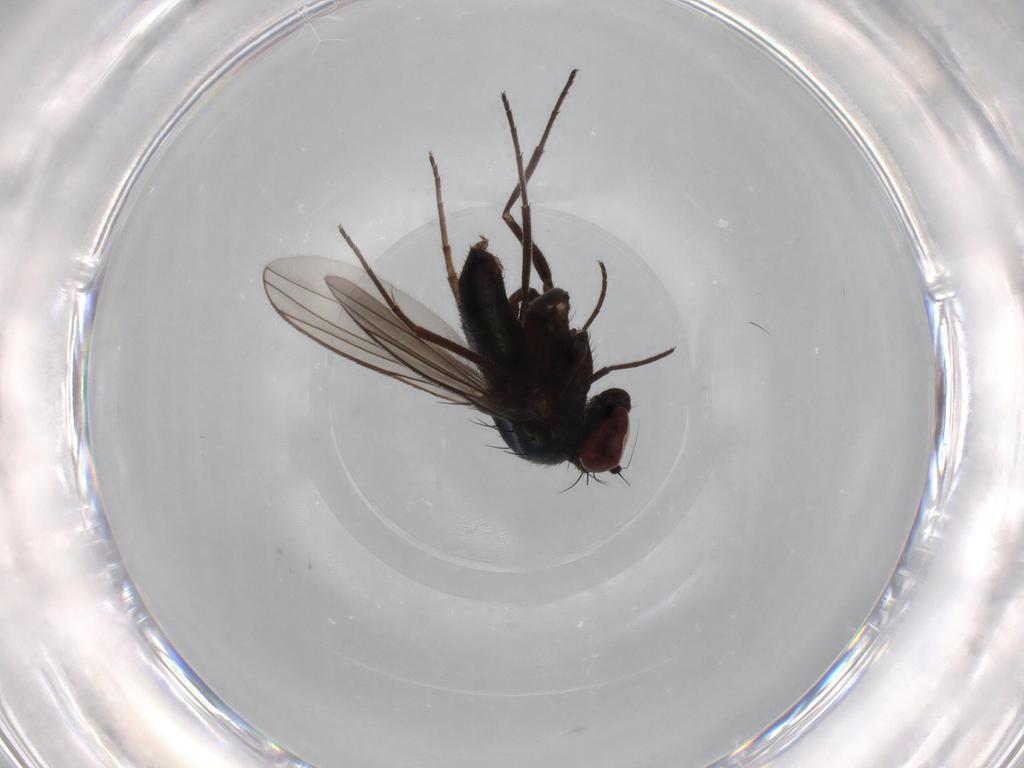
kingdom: Animalia
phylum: Arthropoda
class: Insecta
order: Diptera
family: Dolichopodidae
